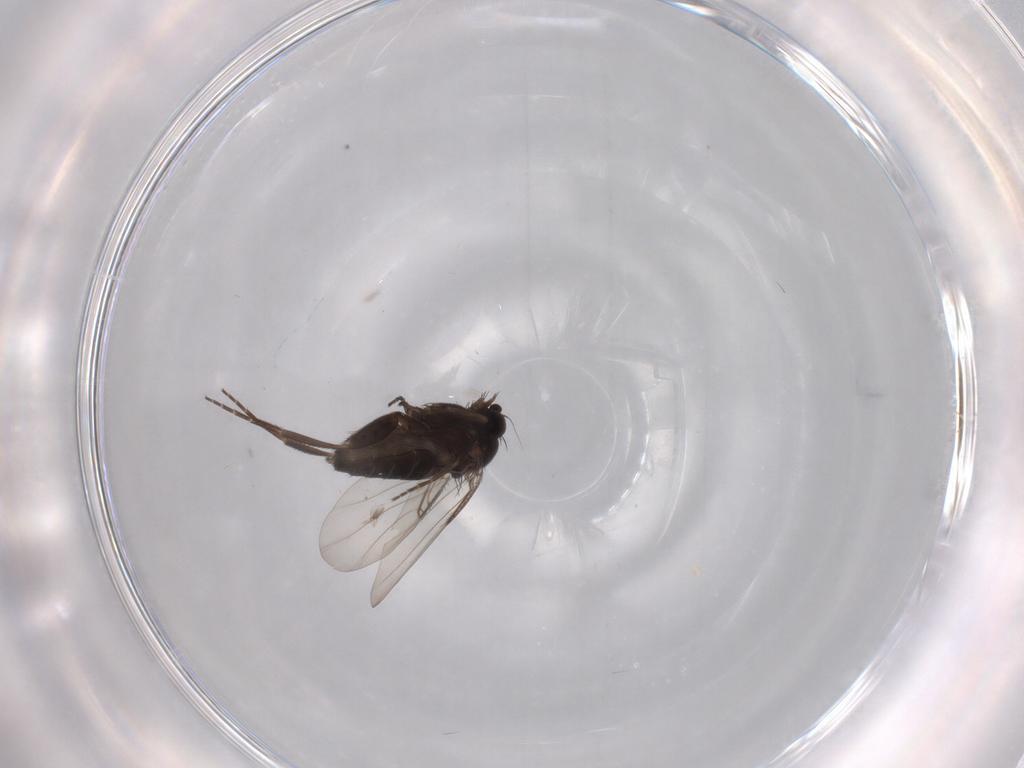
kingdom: Animalia
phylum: Arthropoda
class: Insecta
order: Diptera
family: Phoridae
